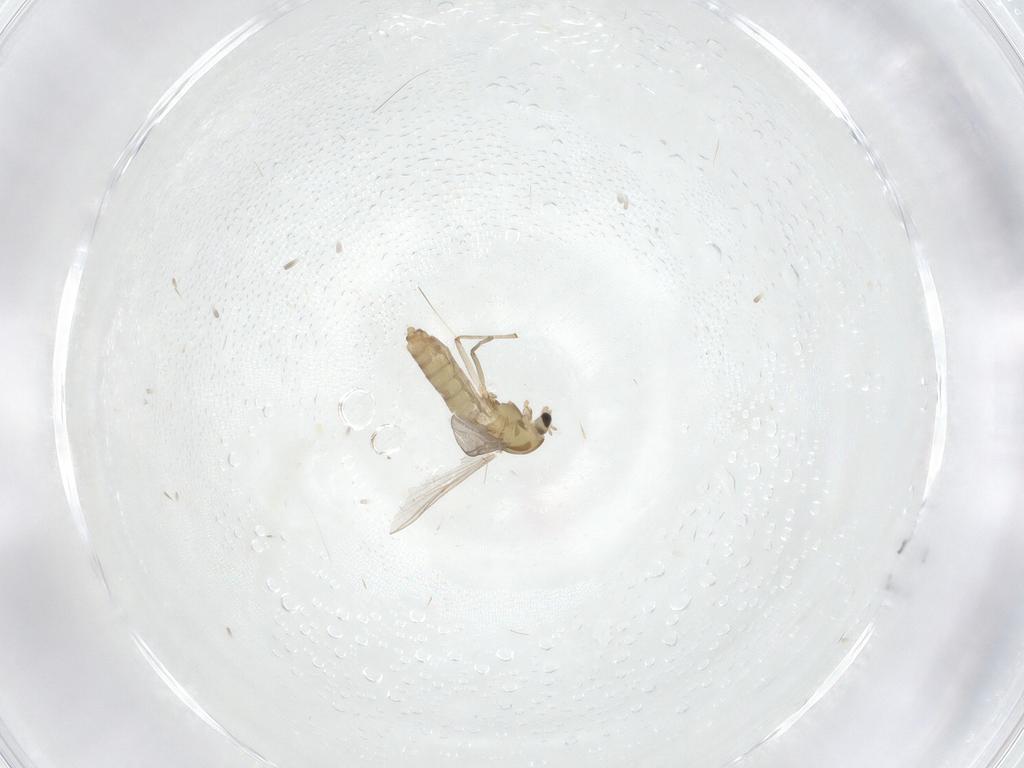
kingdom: Animalia
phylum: Arthropoda
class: Insecta
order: Diptera
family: Chironomidae
